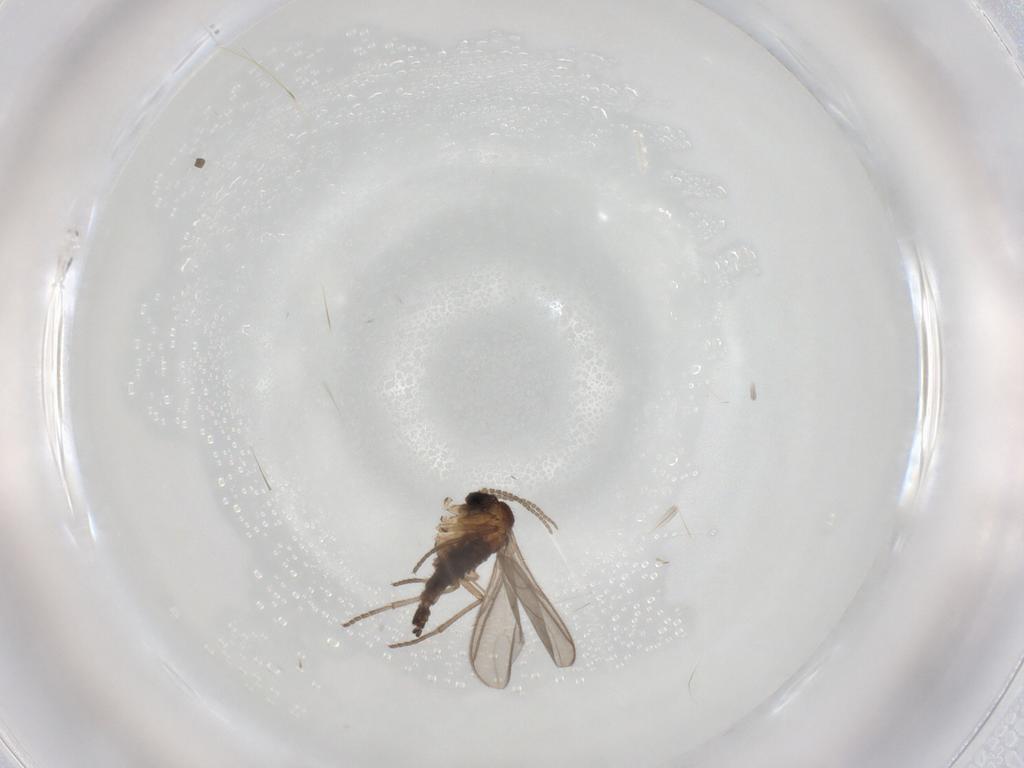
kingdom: Animalia
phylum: Arthropoda
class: Insecta
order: Diptera
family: Sciaridae
